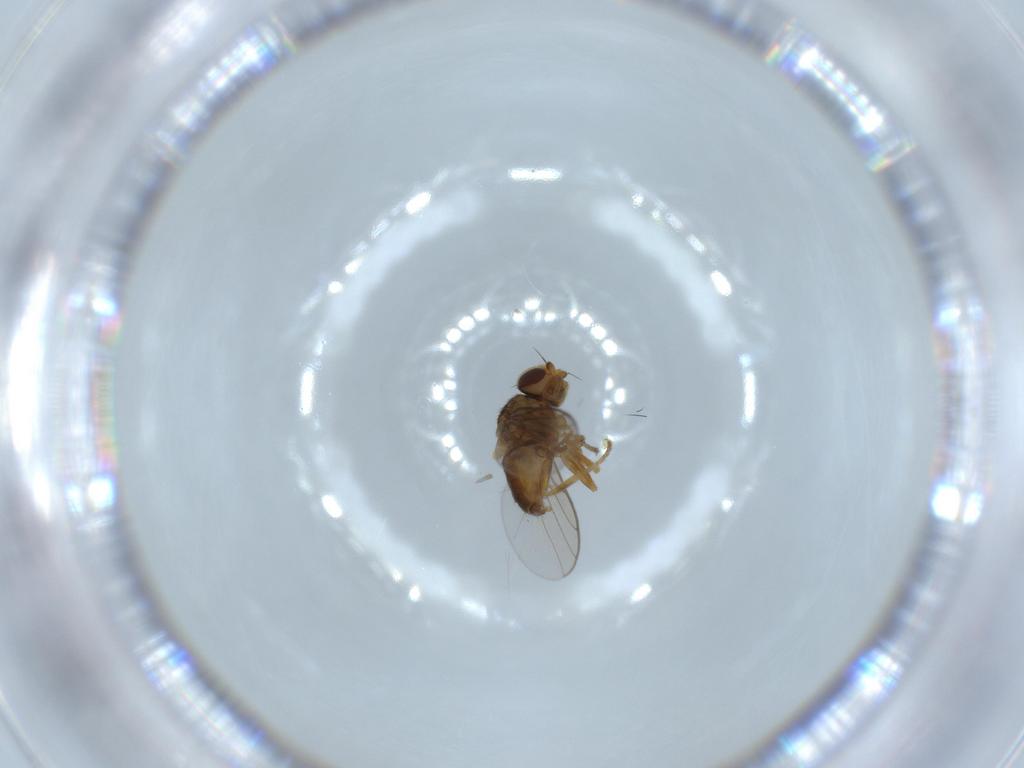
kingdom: Animalia
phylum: Arthropoda
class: Insecta
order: Diptera
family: Chloropidae
